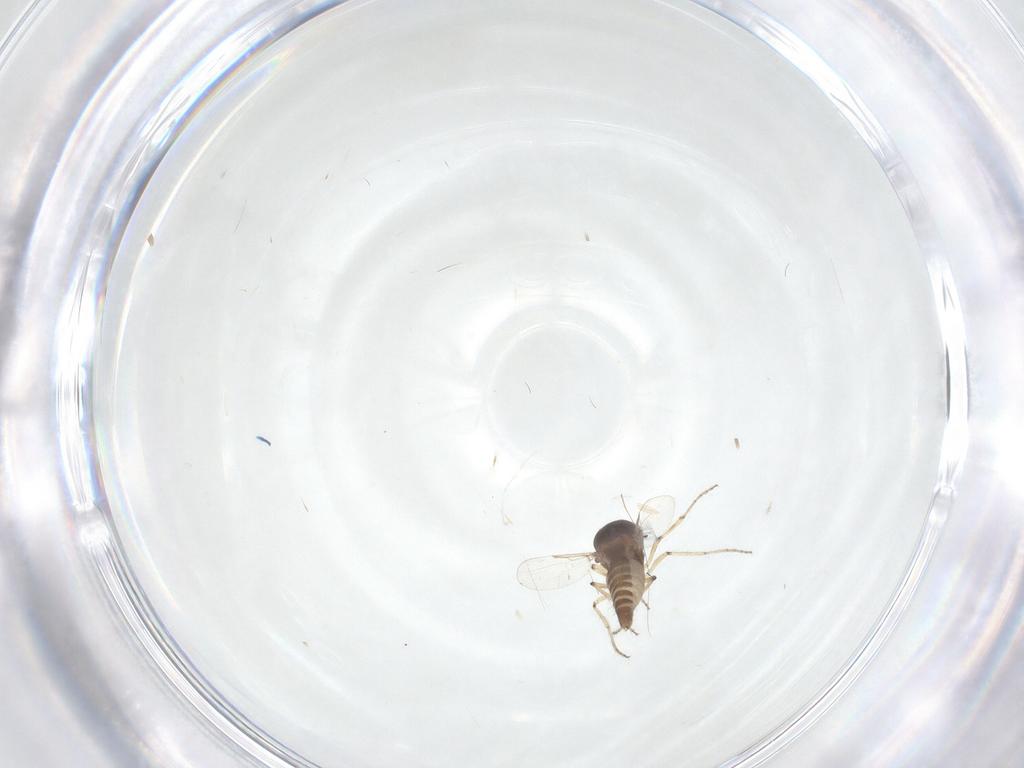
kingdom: Animalia
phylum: Arthropoda
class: Insecta
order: Diptera
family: Ceratopogonidae
